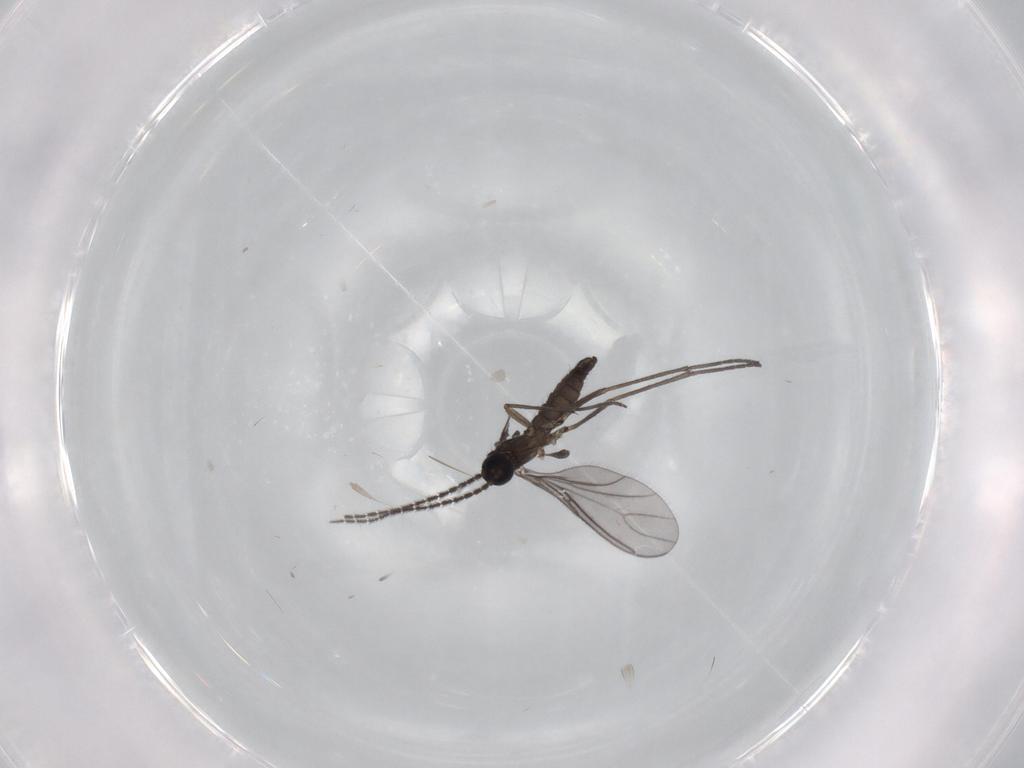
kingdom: Animalia
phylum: Arthropoda
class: Insecta
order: Diptera
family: Sciaridae
